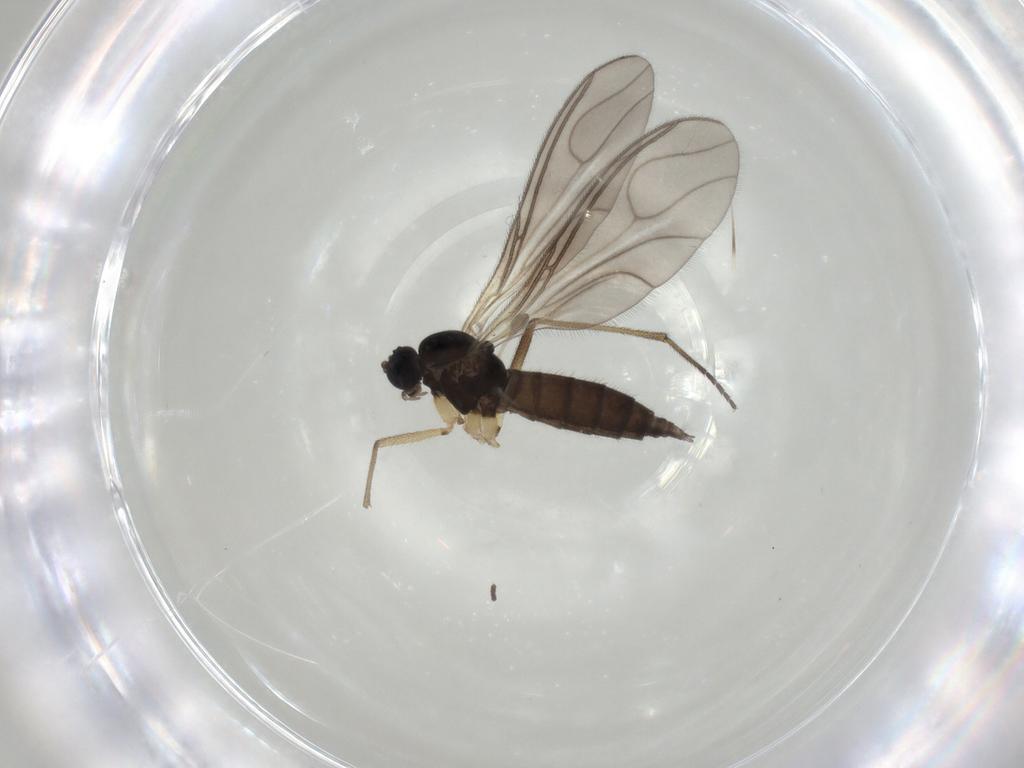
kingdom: Animalia
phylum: Arthropoda
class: Insecta
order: Diptera
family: Sciaridae
